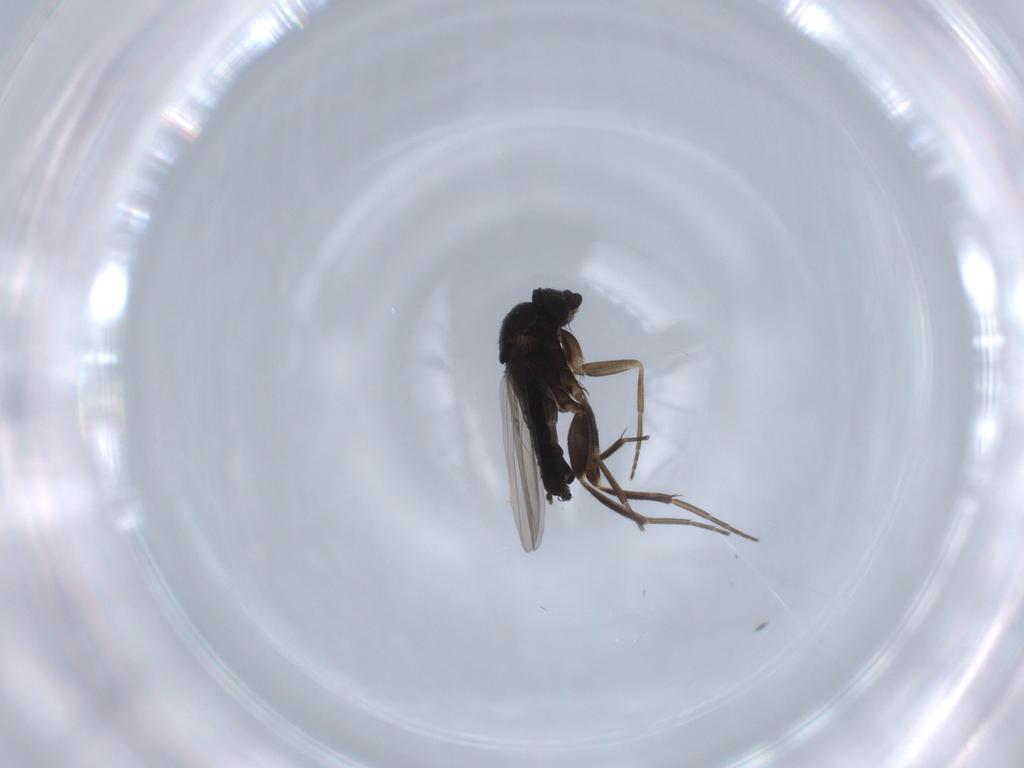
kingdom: Animalia
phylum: Arthropoda
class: Insecta
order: Diptera
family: Phoridae
